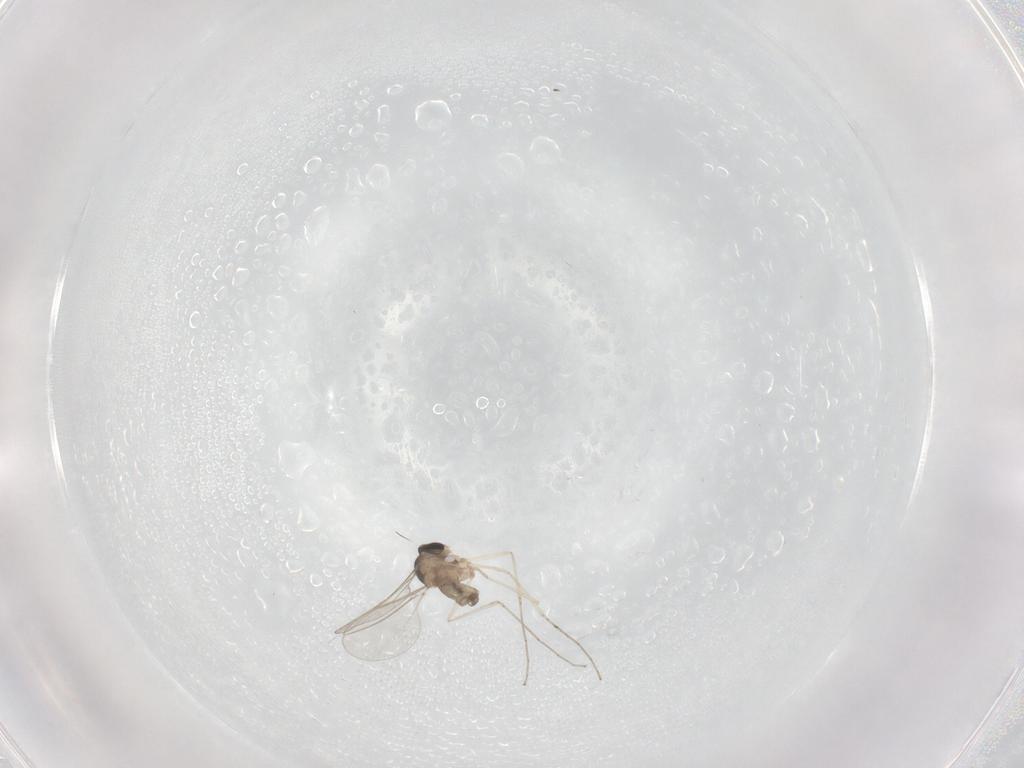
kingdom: Animalia
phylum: Arthropoda
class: Insecta
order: Diptera
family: Cecidomyiidae
